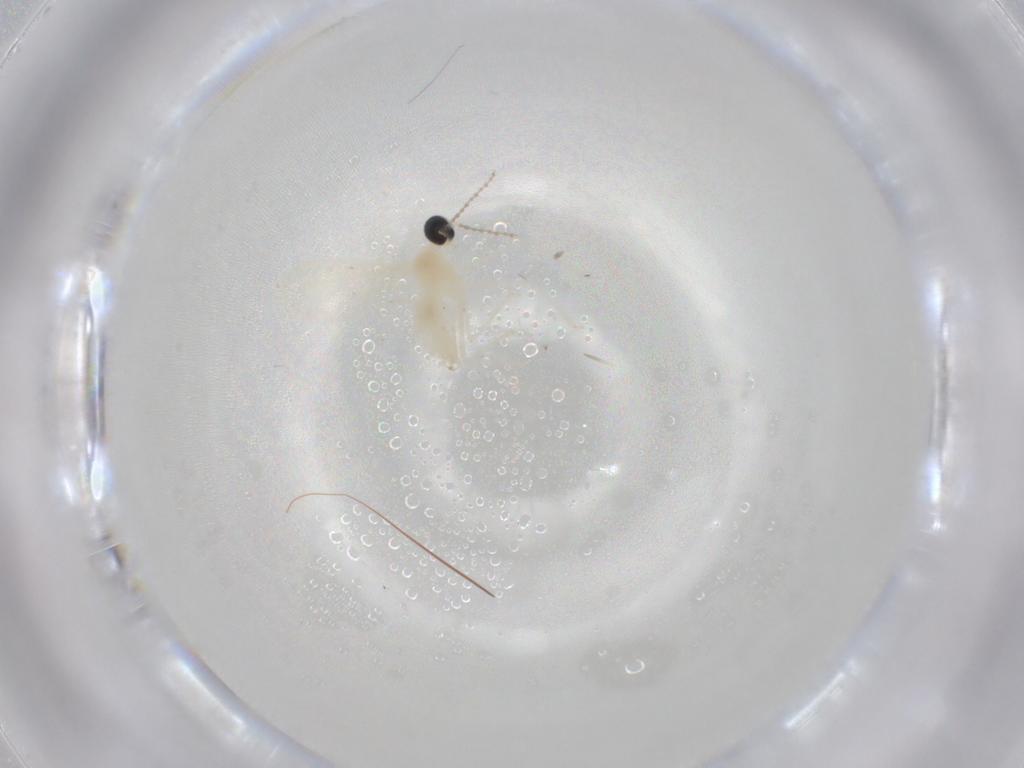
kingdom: Animalia
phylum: Arthropoda
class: Insecta
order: Diptera
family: Cecidomyiidae
